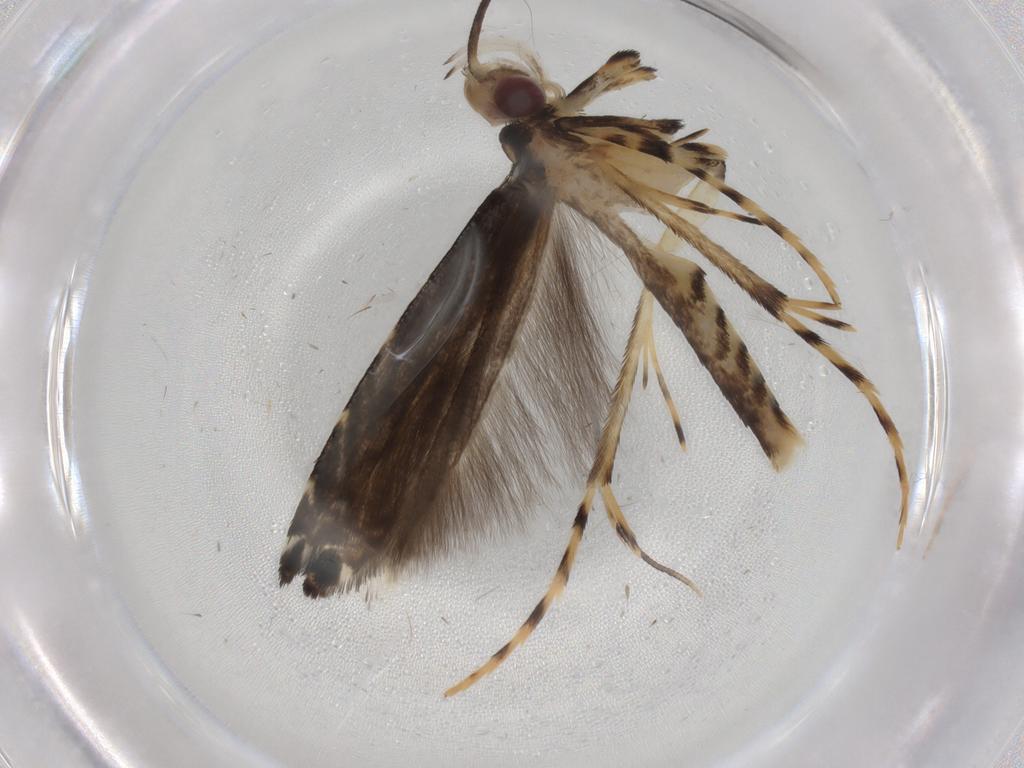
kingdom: Animalia
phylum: Arthropoda
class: Insecta
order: Lepidoptera
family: Gracillariidae
